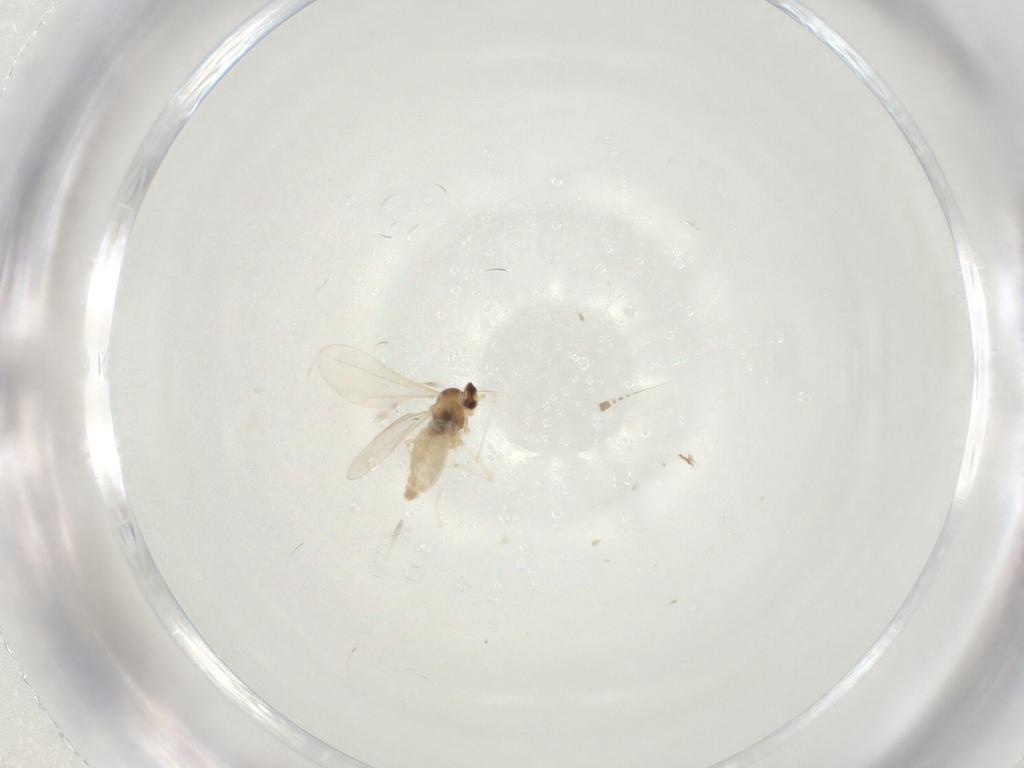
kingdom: Animalia
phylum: Arthropoda
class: Insecta
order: Diptera
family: Cecidomyiidae
